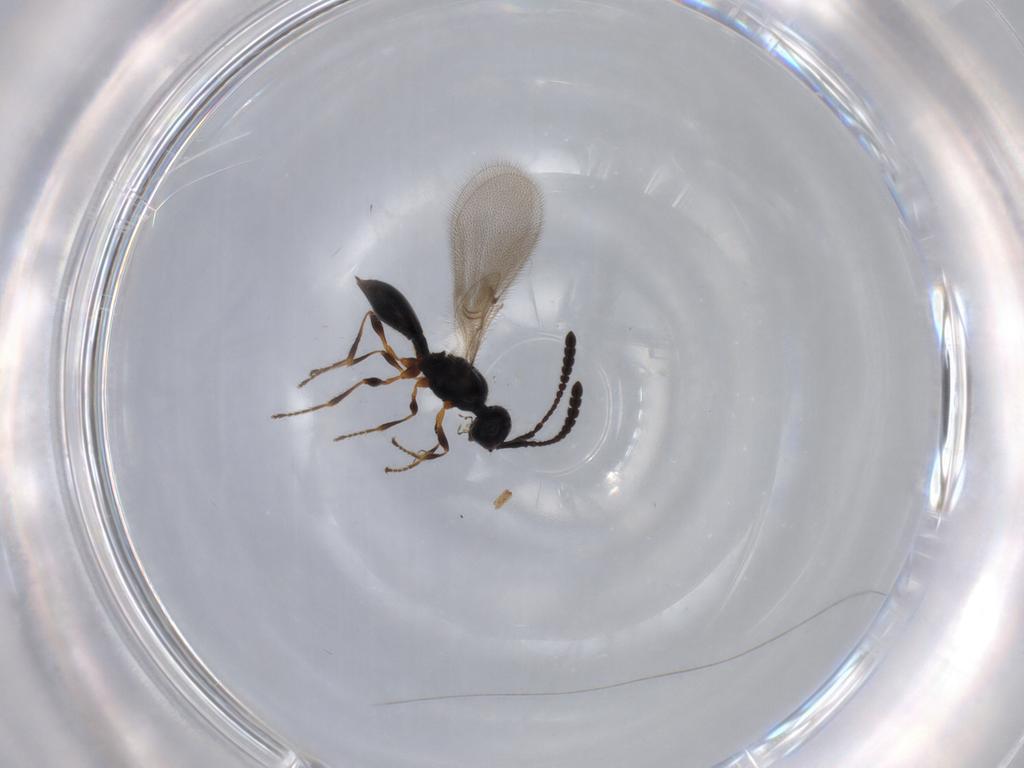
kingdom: Animalia
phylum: Arthropoda
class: Insecta
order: Hymenoptera
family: Diapriidae
